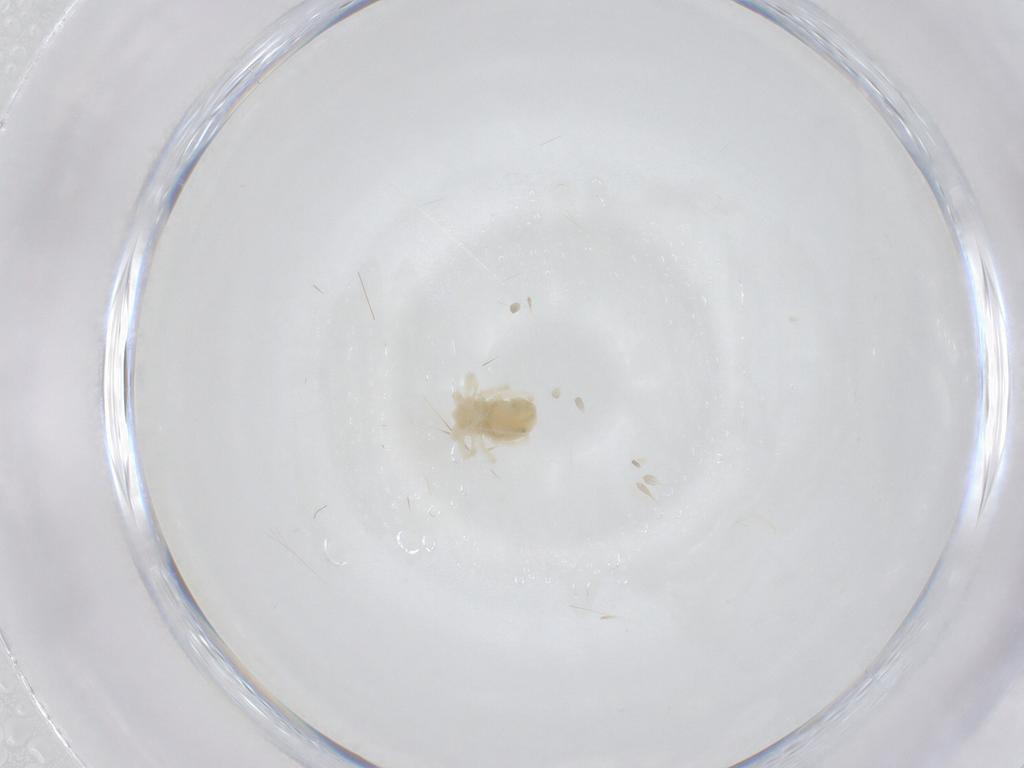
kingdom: Animalia
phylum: Arthropoda
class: Arachnida
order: Trombidiformes
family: Anystidae
